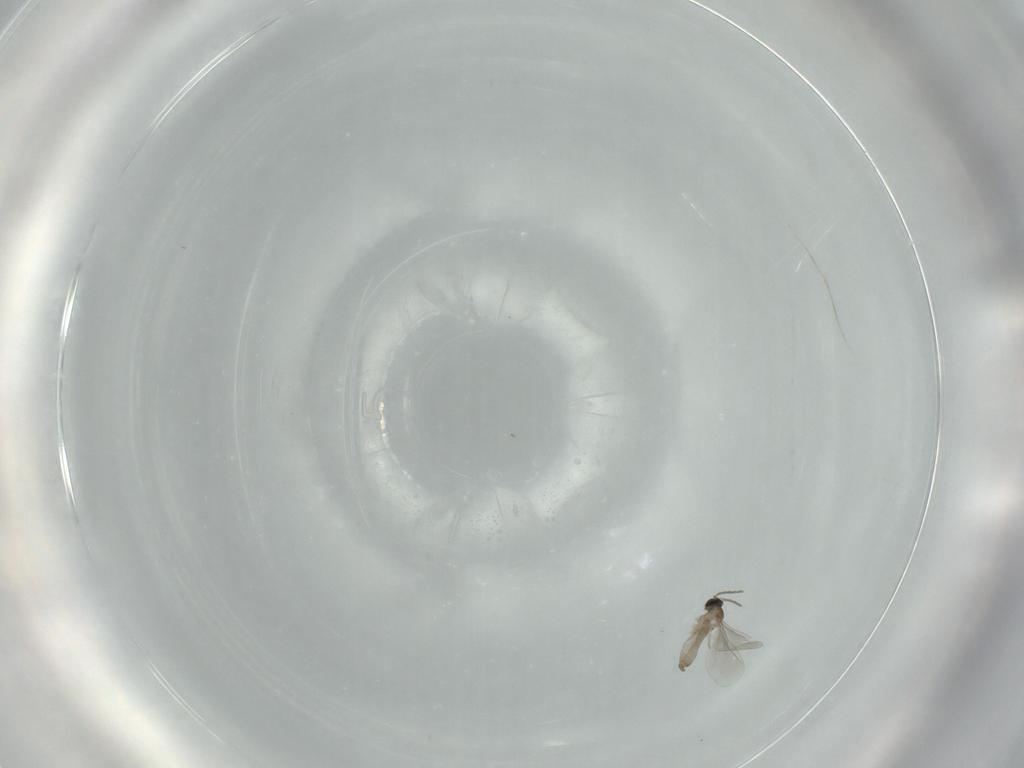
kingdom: Animalia
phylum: Arthropoda
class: Insecta
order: Diptera
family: Cecidomyiidae
